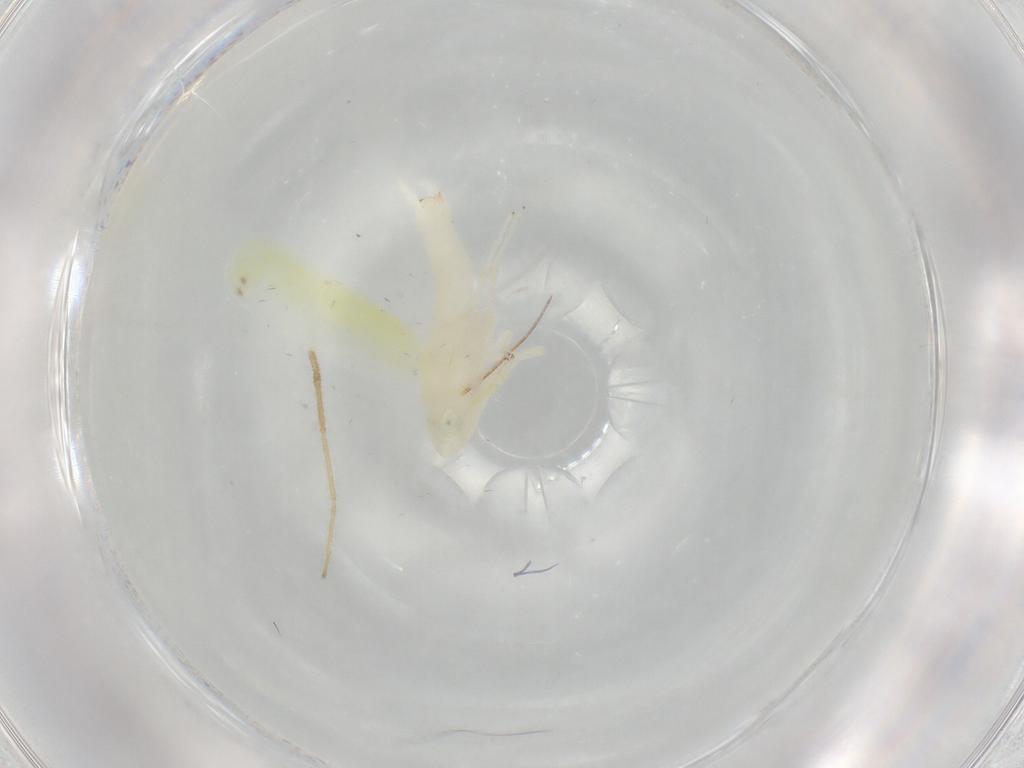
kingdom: Animalia
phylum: Arthropoda
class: Insecta
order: Hemiptera
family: Cicadellidae
